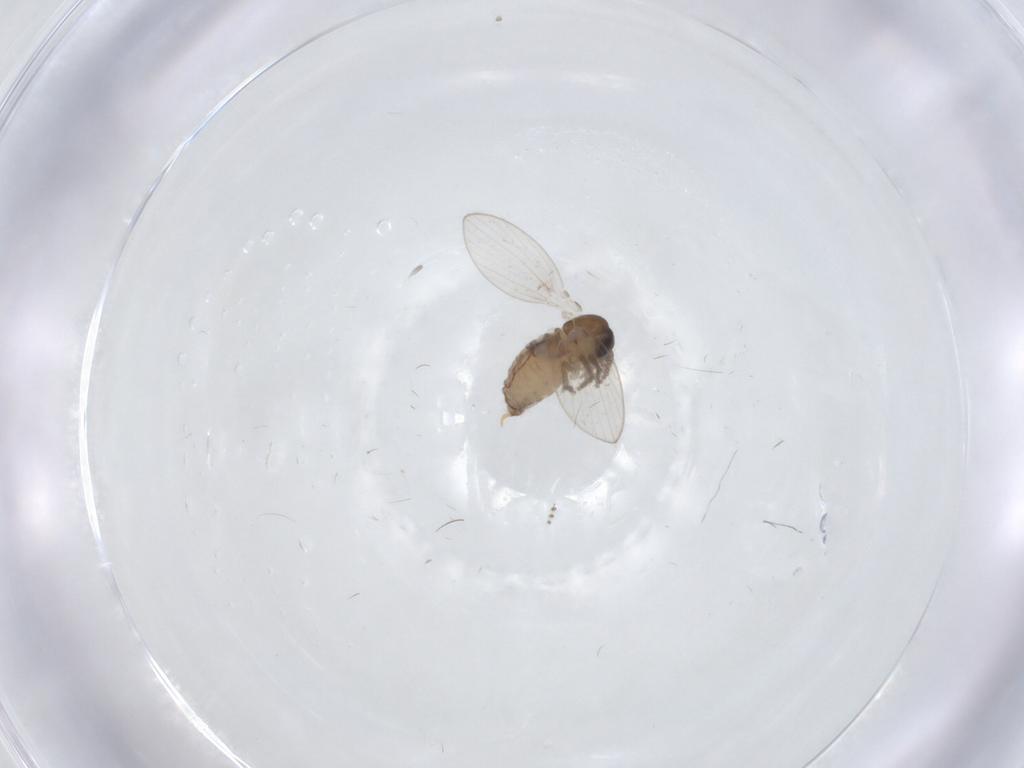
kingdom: Animalia
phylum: Arthropoda
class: Insecta
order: Diptera
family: Psychodidae
